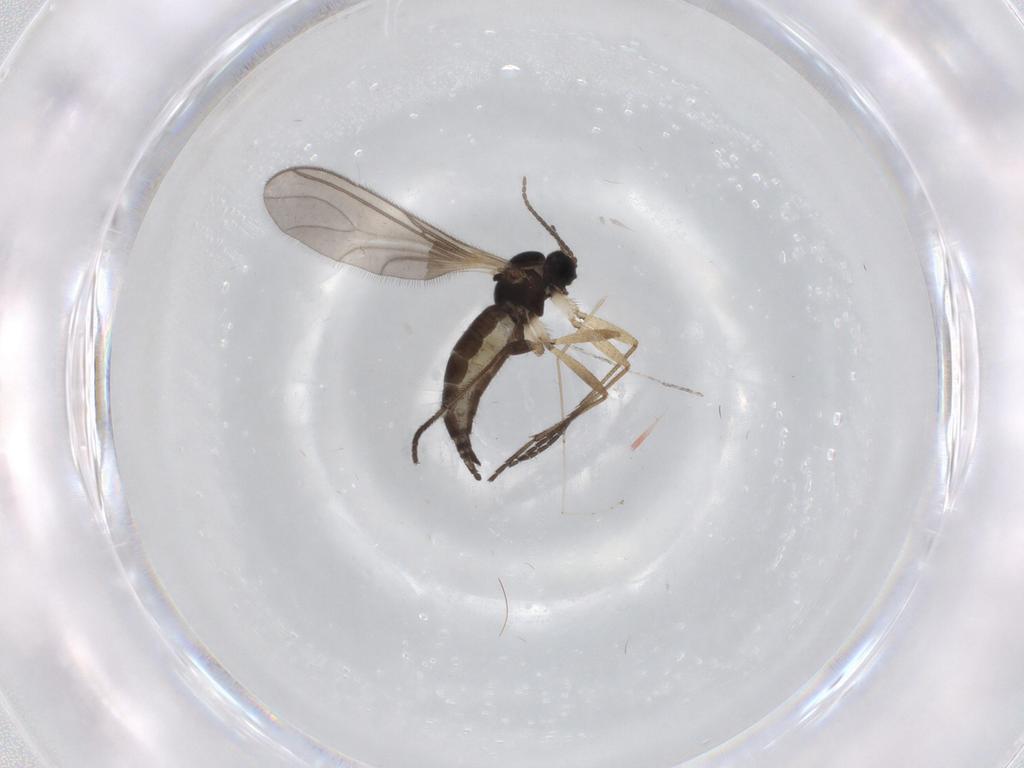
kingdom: Animalia
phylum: Arthropoda
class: Insecta
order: Diptera
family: Sciaridae
